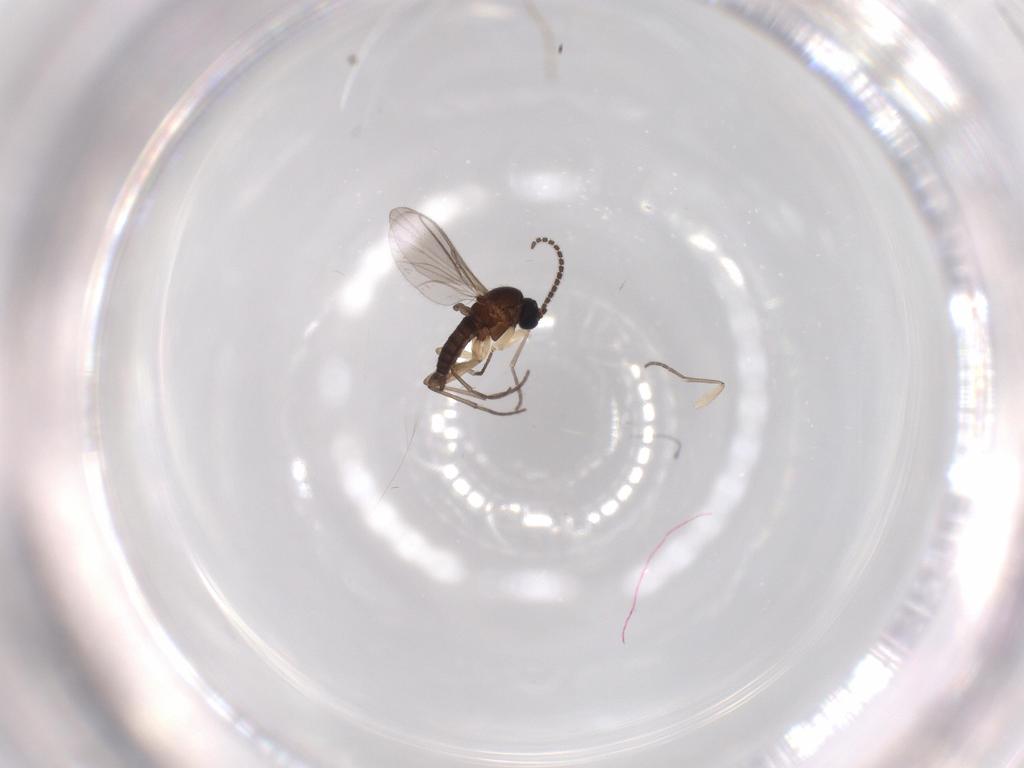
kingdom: Animalia
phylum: Arthropoda
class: Insecta
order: Diptera
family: Sciaridae
